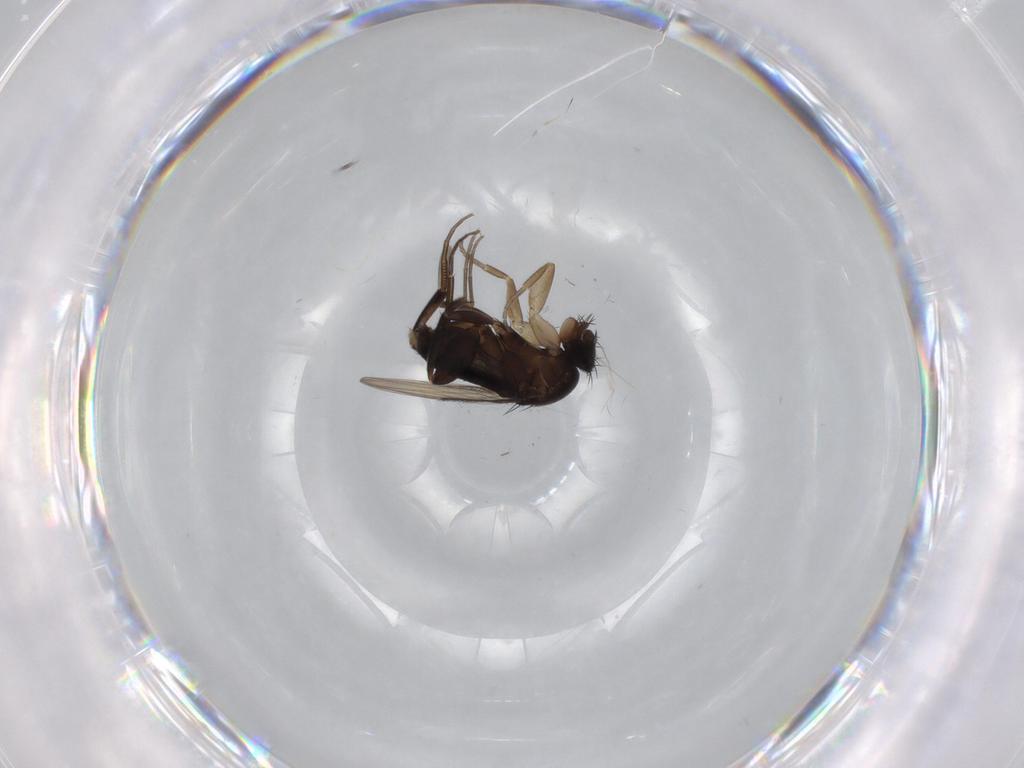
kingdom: Animalia
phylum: Arthropoda
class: Insecta
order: Diptera
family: Phoridae
